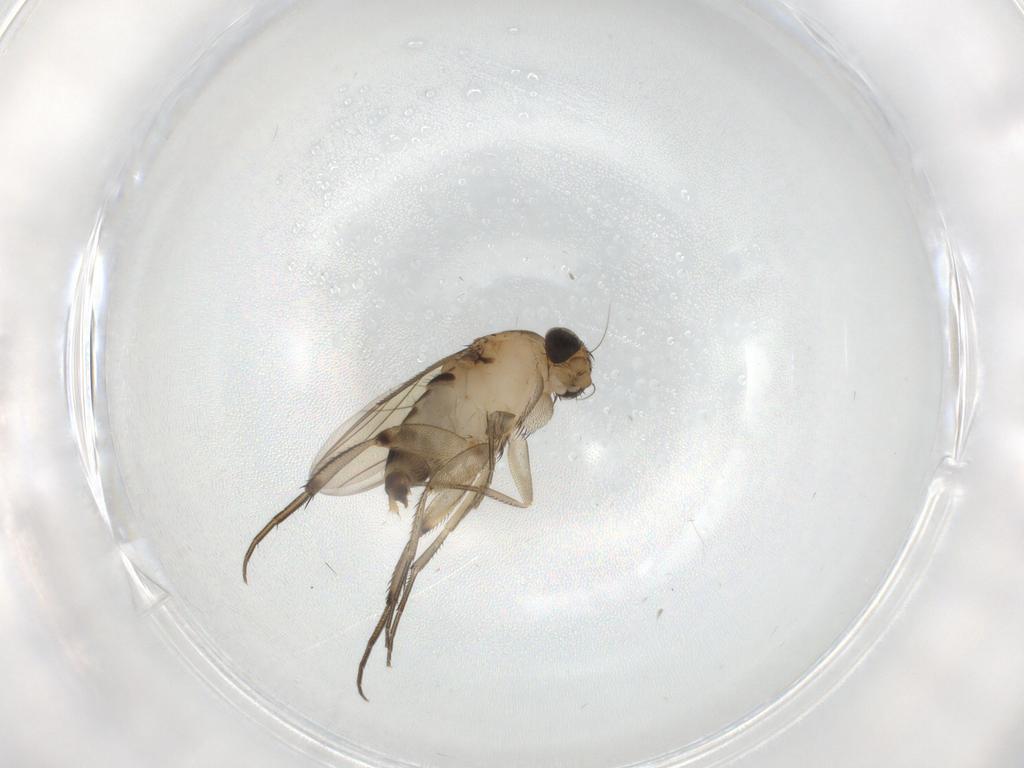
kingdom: Animalia
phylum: Arthropoda
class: Insecta
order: Diptera
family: Phoridae
